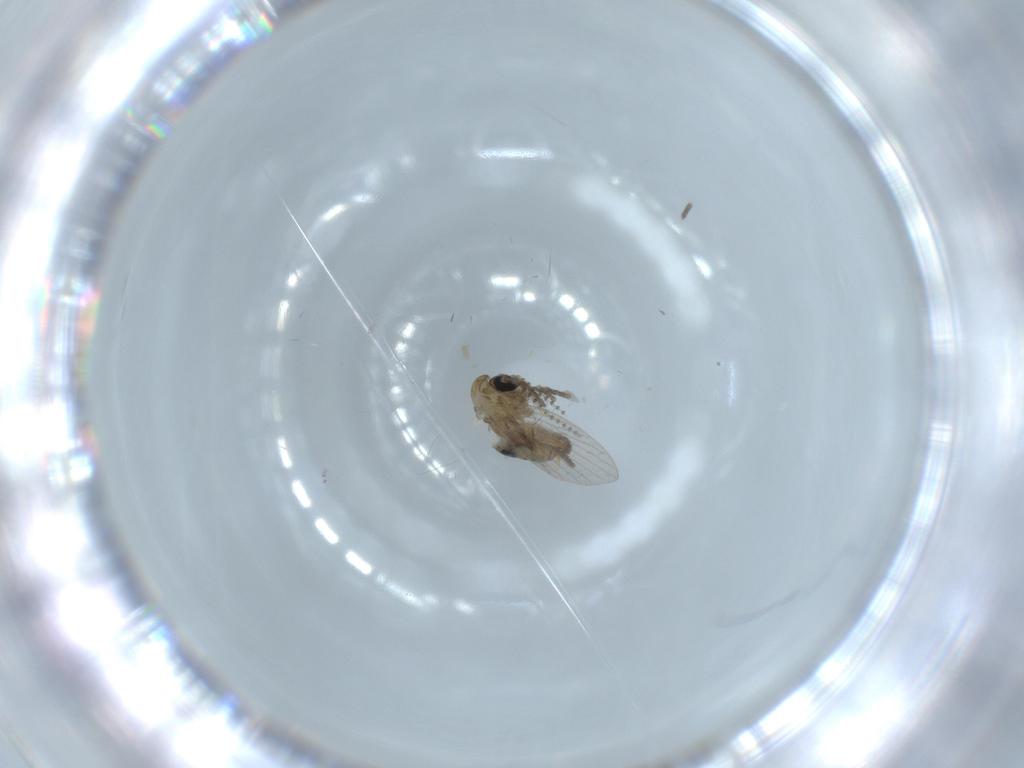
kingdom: Animalia
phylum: Arthropoda
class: Insecta
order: Diptera
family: Psychodidae
